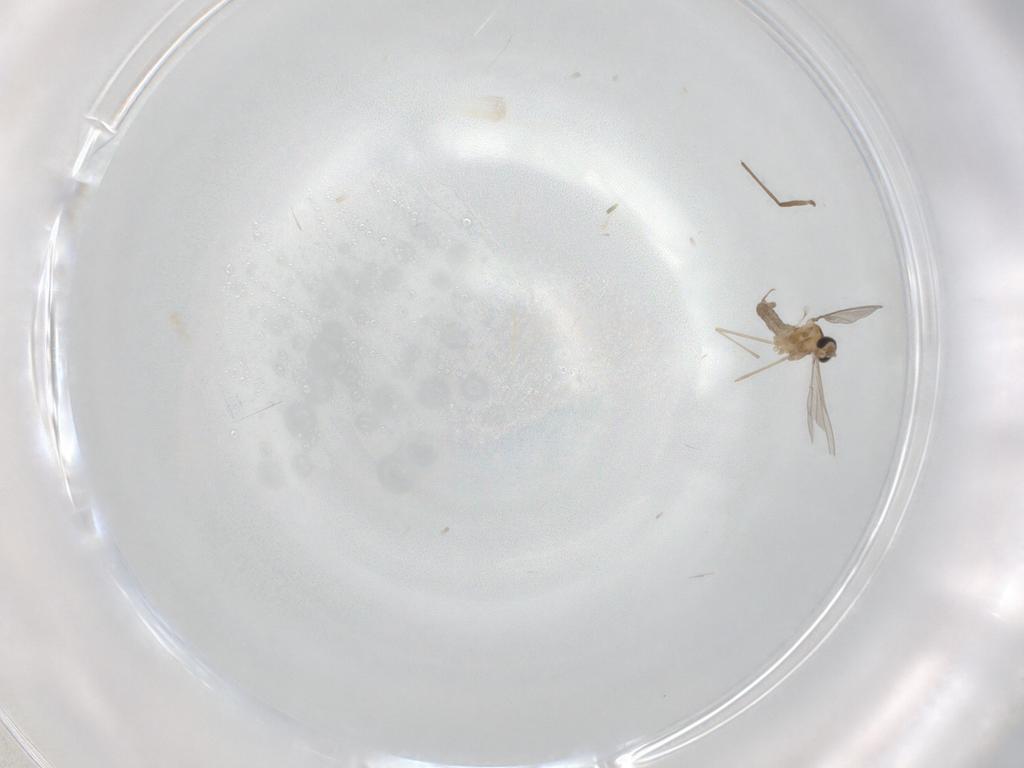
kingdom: Animalia
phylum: Arthropoda
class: Insecta
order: Diptera
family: Cecidomyiidae
